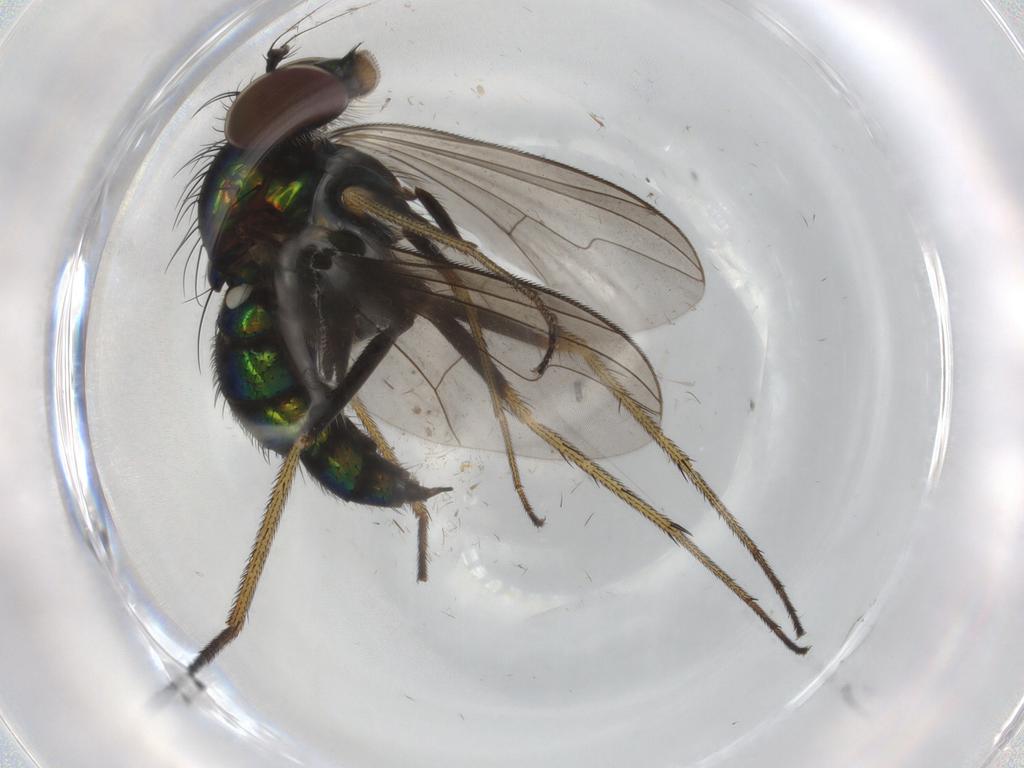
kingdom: Animalia
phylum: Arthropoda
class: Insecta
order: Diptera
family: Dolichopodidae
